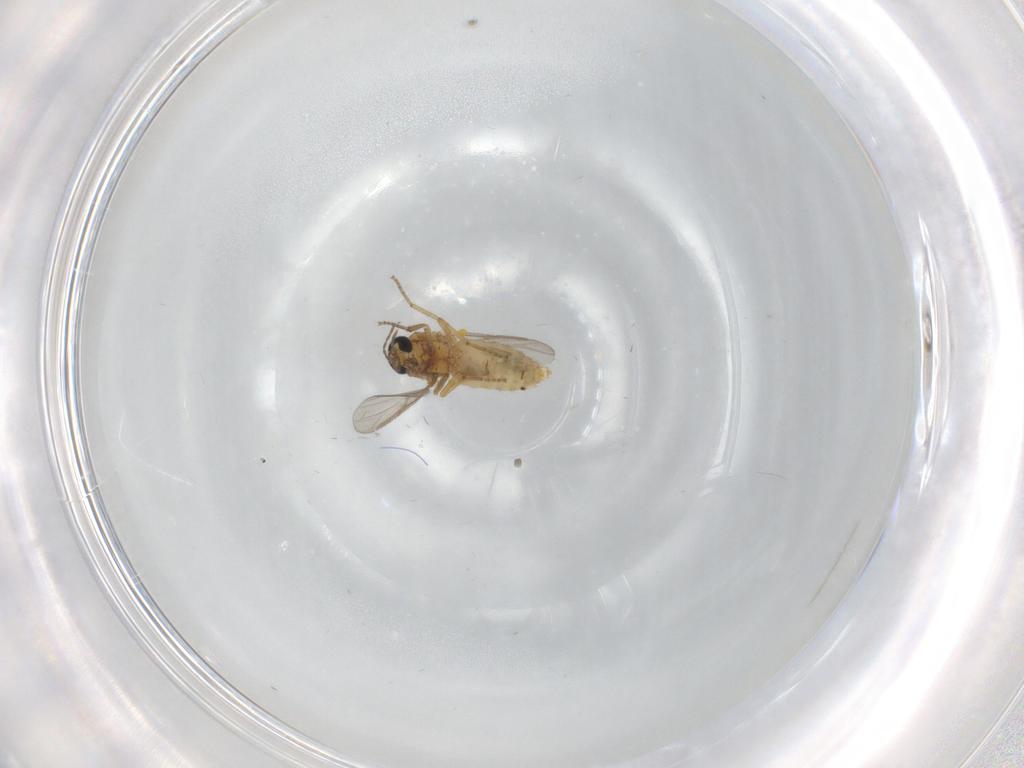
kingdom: Animalia
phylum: Arthropoda
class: Insecta
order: Diptera
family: Ceratopogonidae
